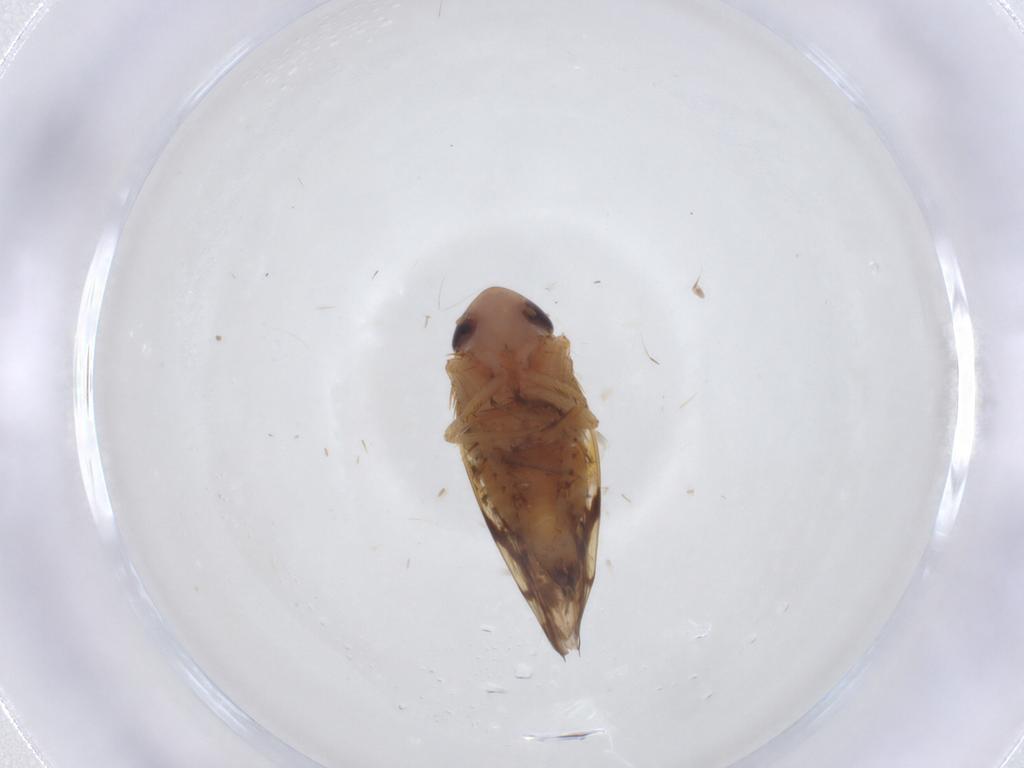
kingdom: Animalia
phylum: Arthropoda
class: Insecta
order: Hemiptera
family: Cicadellidae
